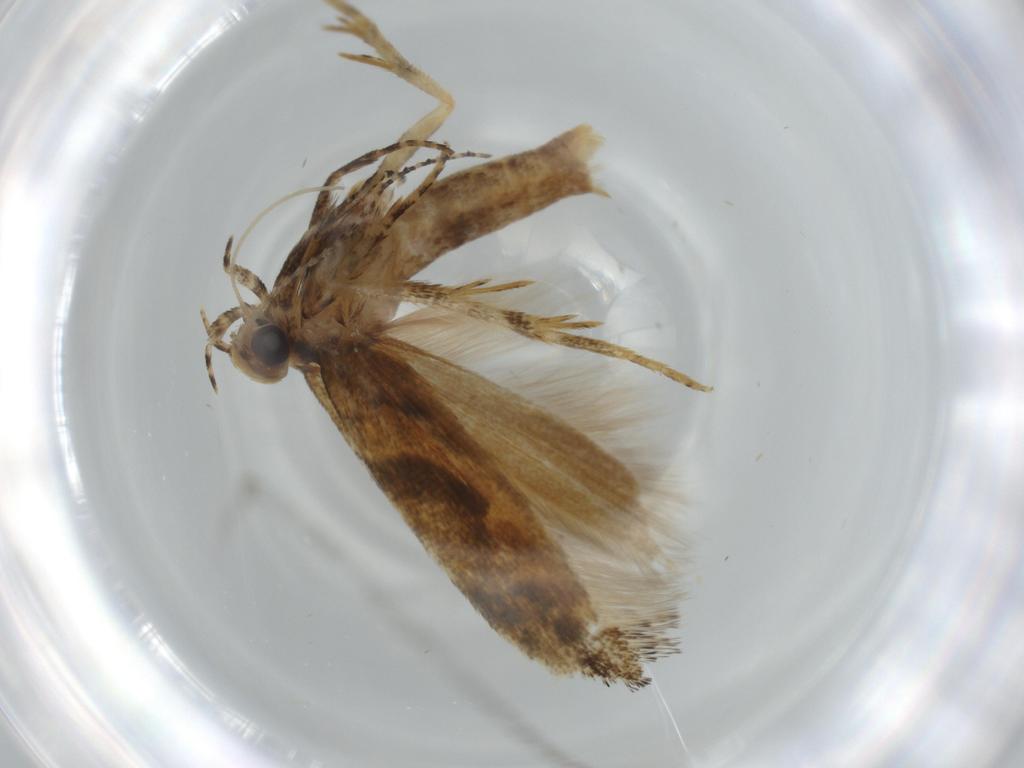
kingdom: Animalia
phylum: Arthropoda
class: Insecta
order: Lepidoptera
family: Gelechiidae
